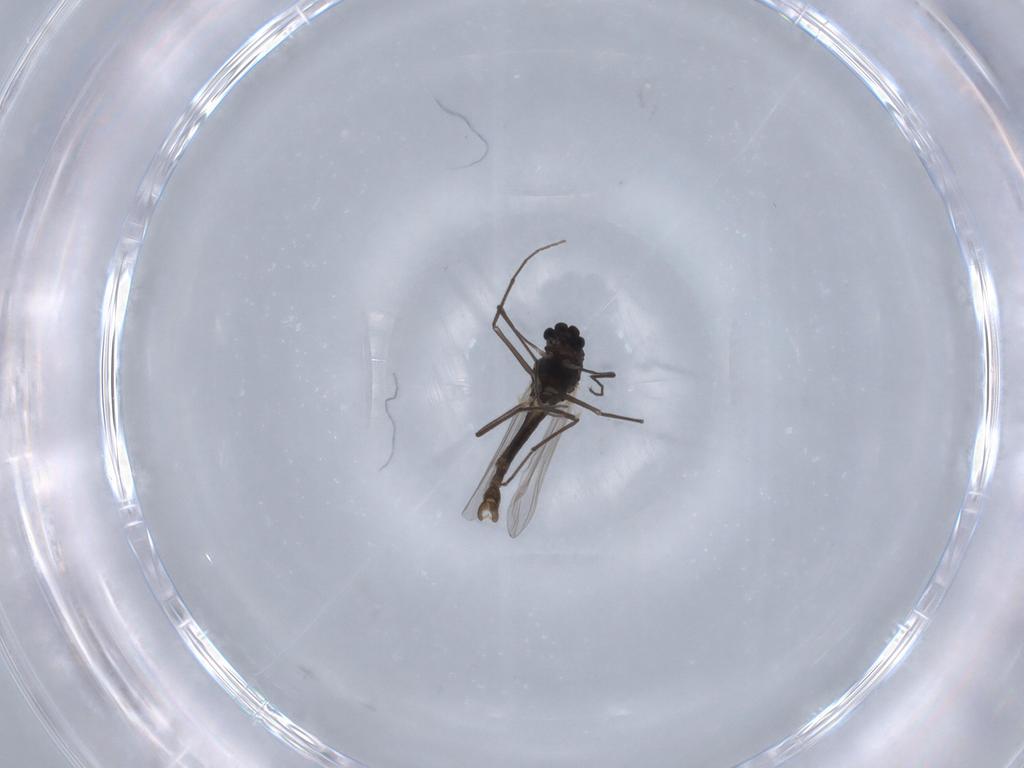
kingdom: Animalia
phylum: Arthropoda
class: Insecta
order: Diptera
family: Chironomidae
